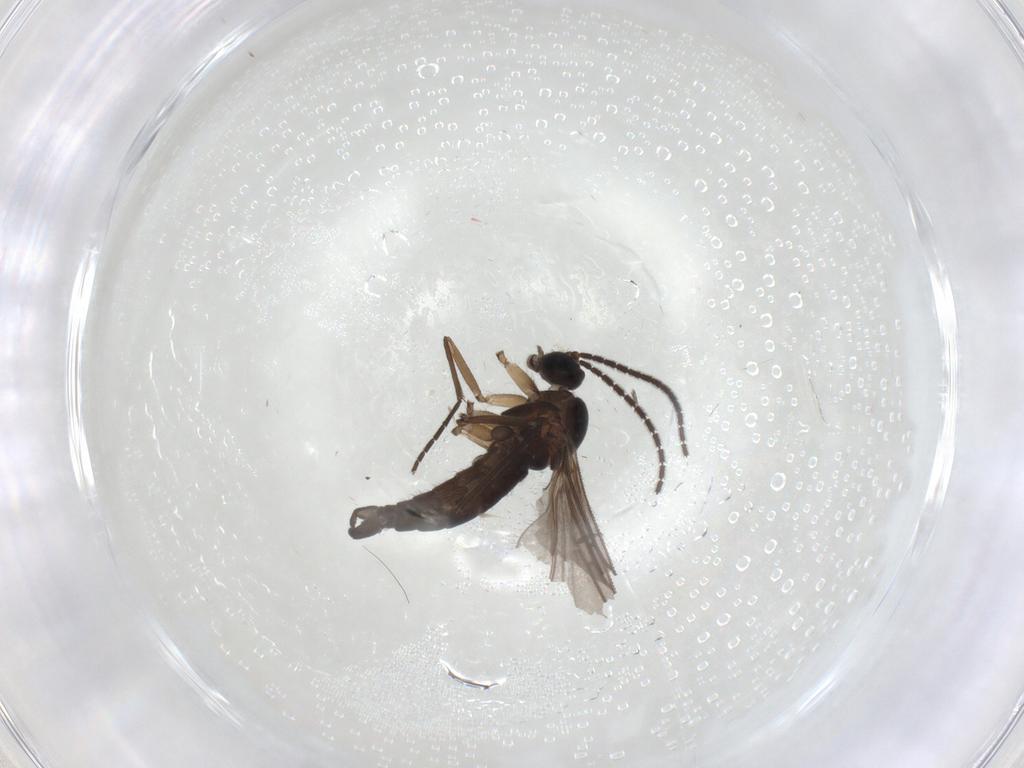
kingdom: Animalia
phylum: Arthropoda
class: Insecta
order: Diptera
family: Sciaridae
